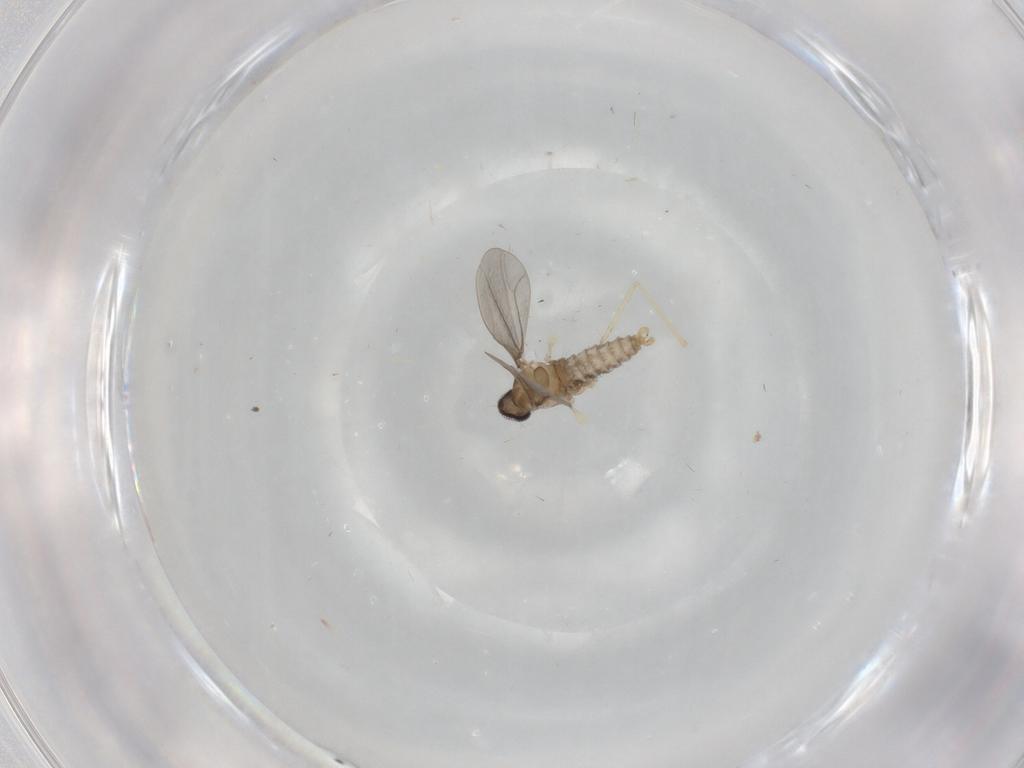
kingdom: Animalia
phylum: Arthropoda
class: Insecta
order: Diptera
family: Cecidomyiidae
